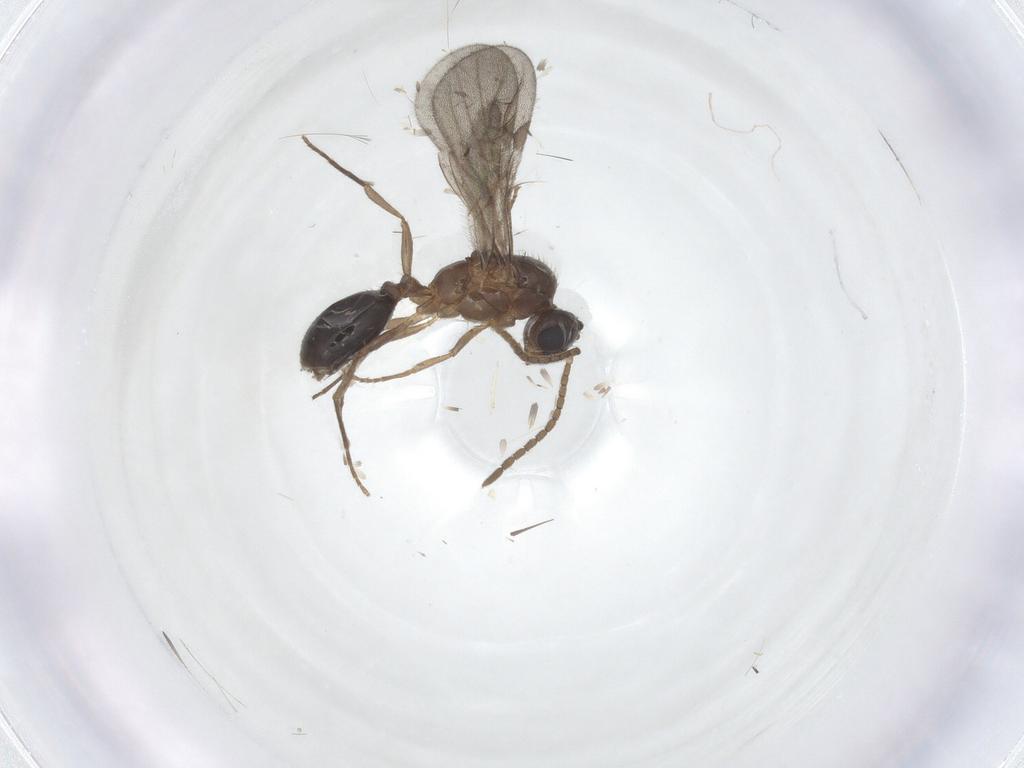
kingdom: Animalia
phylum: Arthropoda
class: Insecta
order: Hymenoptera
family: Formicidae
